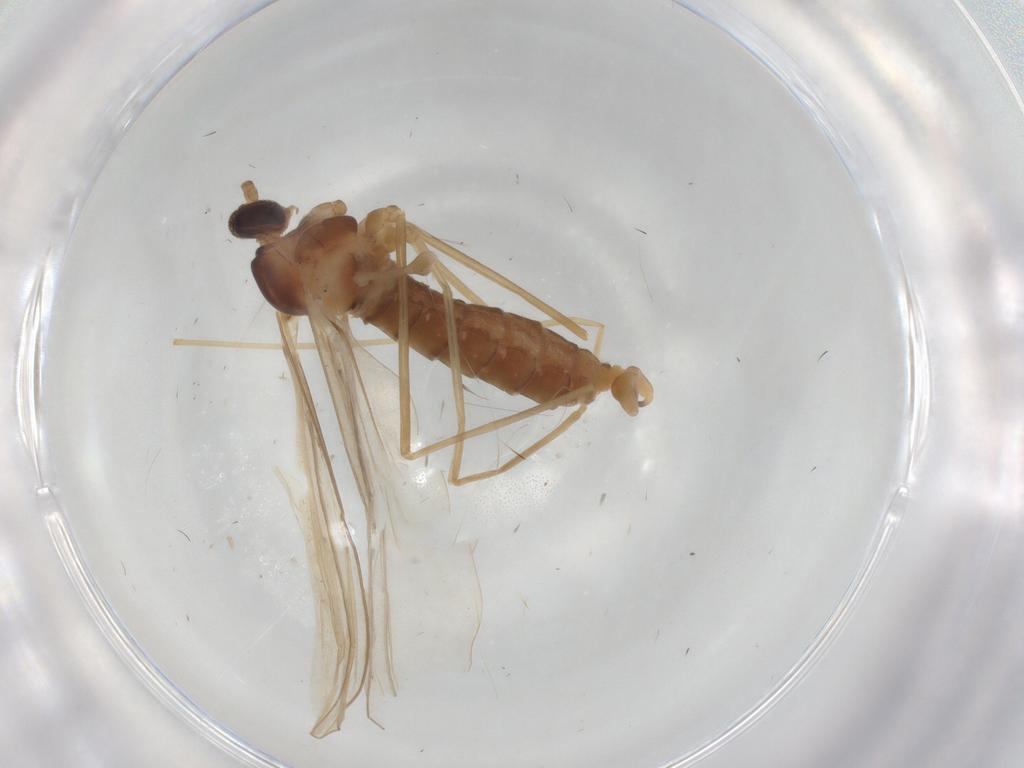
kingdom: Animalia
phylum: Arthropoda
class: Insecta
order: Diptera
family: Cecidomyiidae
